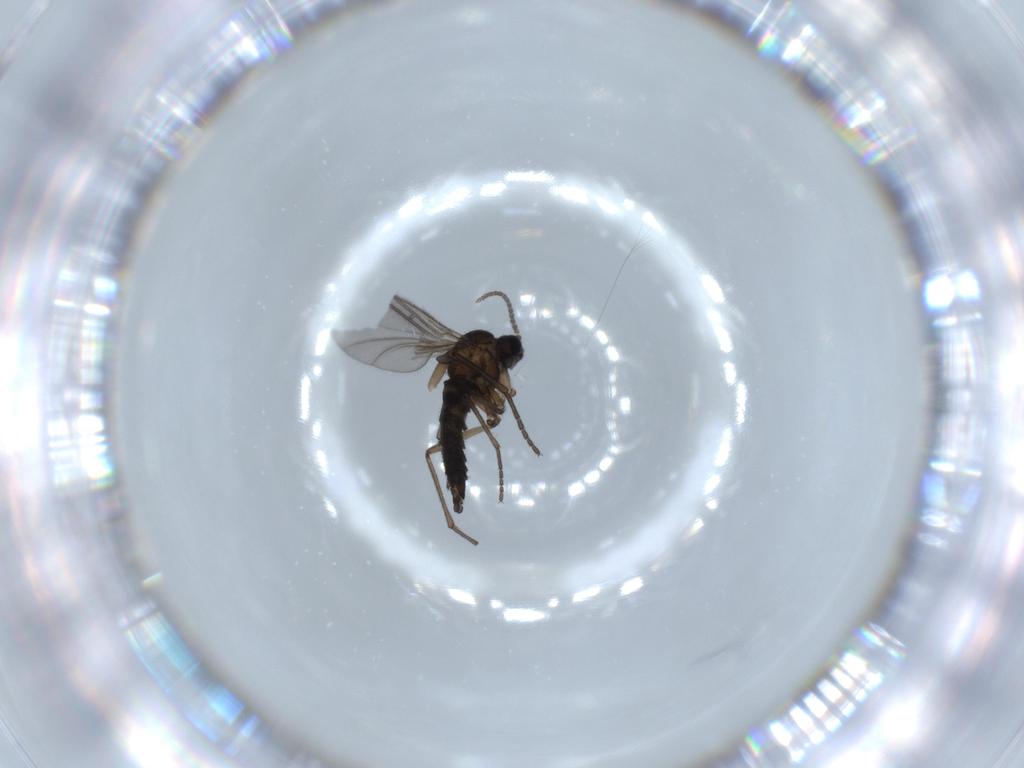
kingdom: Animalia
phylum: Arthropoda
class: Insecta
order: Diptera
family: Sciaridae
